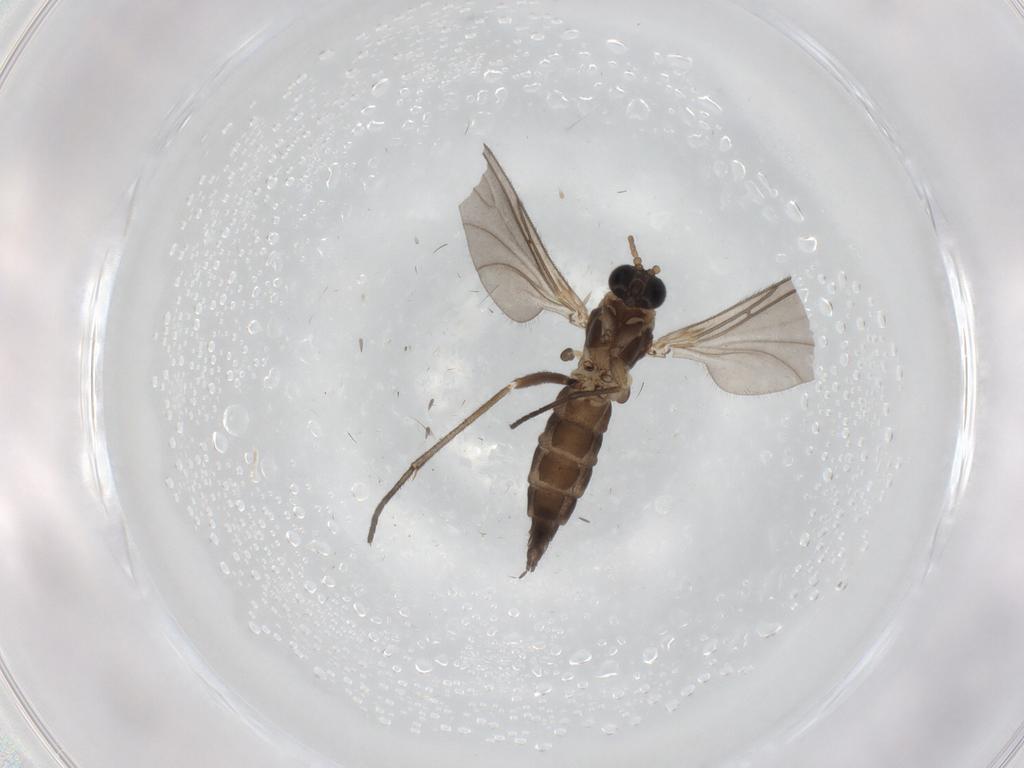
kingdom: Animalia
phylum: Arthropoda
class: Insecta
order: Diptera
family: Sciaridae
